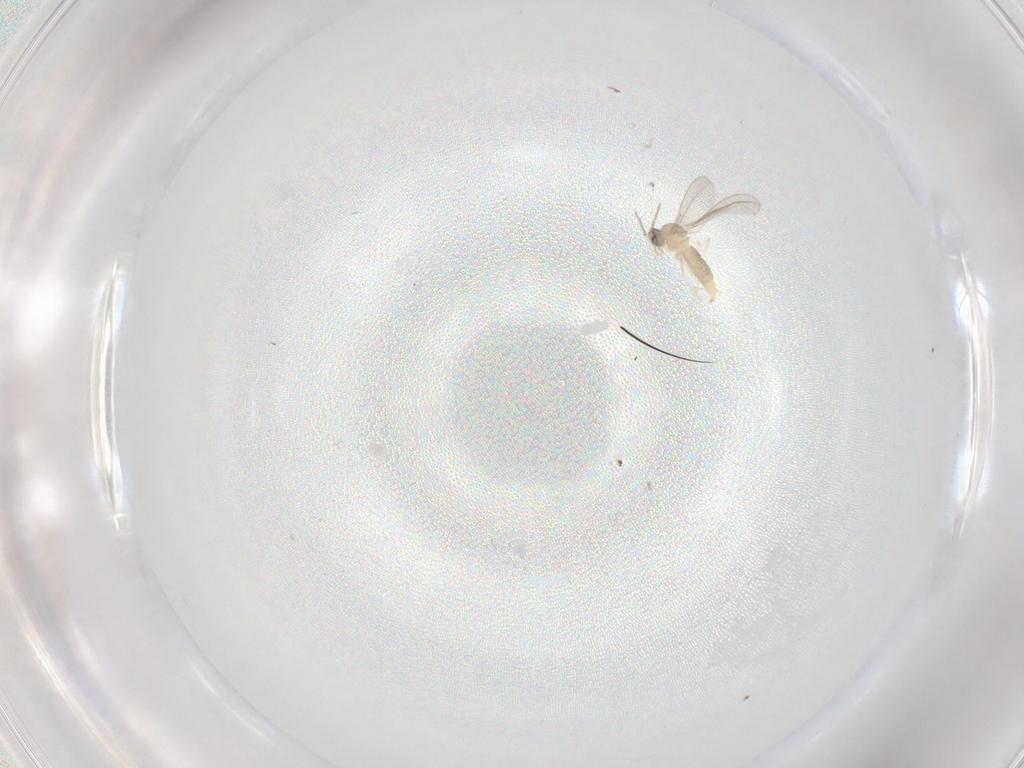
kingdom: Animalia
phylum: Arthropoda
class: Insecta
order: Diptera
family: Cecidomyiidae
